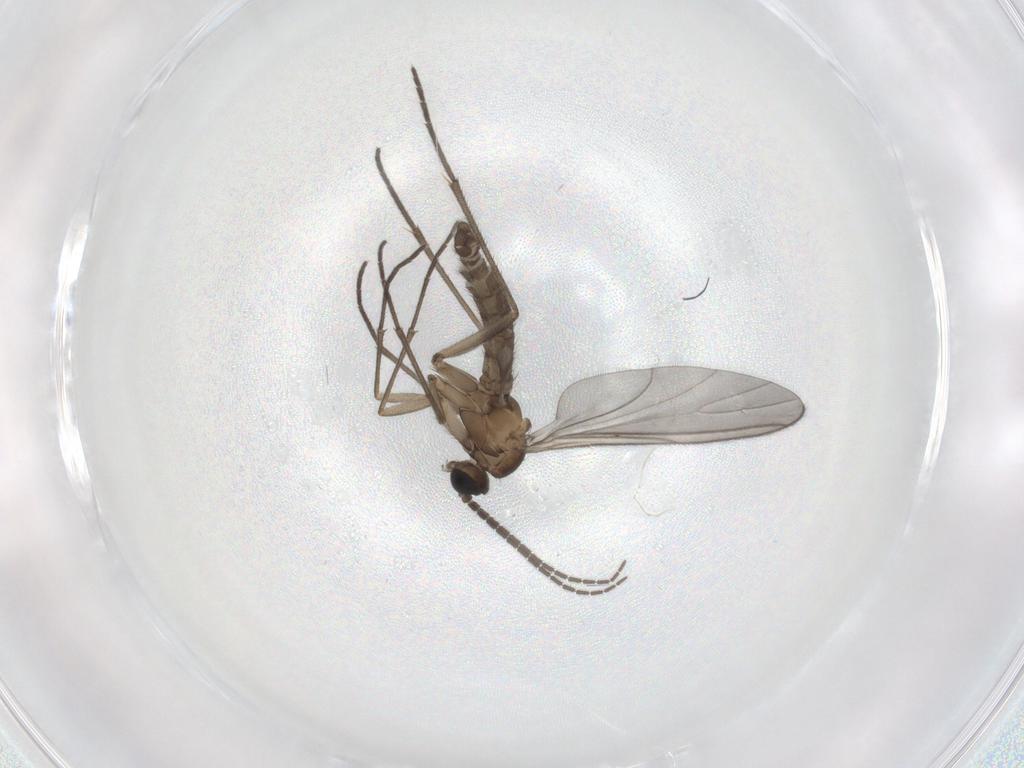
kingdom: Animalia
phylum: Arthropoda
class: Insecta
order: Diptera
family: Sciaridae
